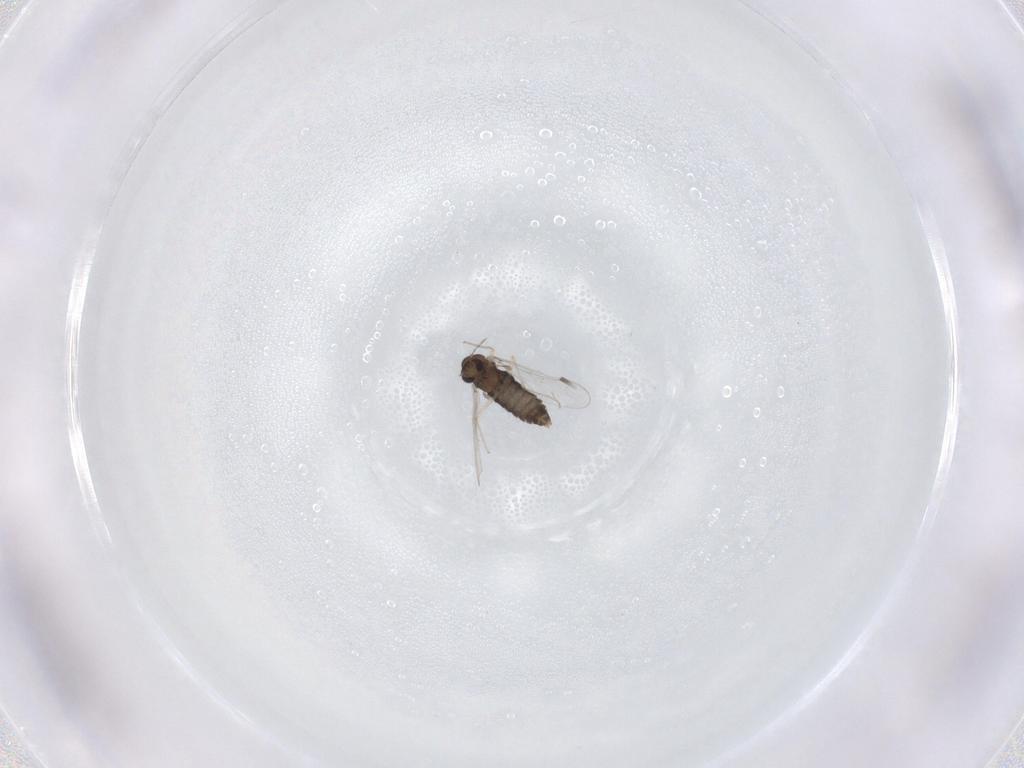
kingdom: Animalia
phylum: Arthropoda
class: Insecta
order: Diptera
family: Chironomidae
